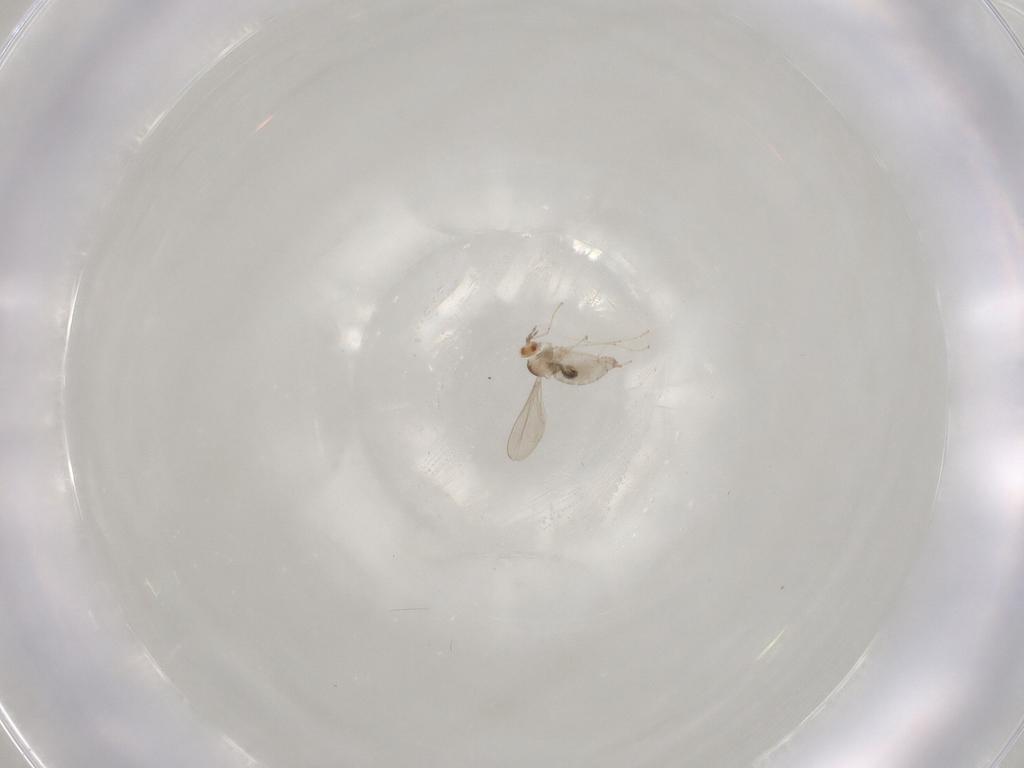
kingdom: Animalia
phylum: Arthropoda
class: Insecta
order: Diptera
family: Cecidomyiidae
